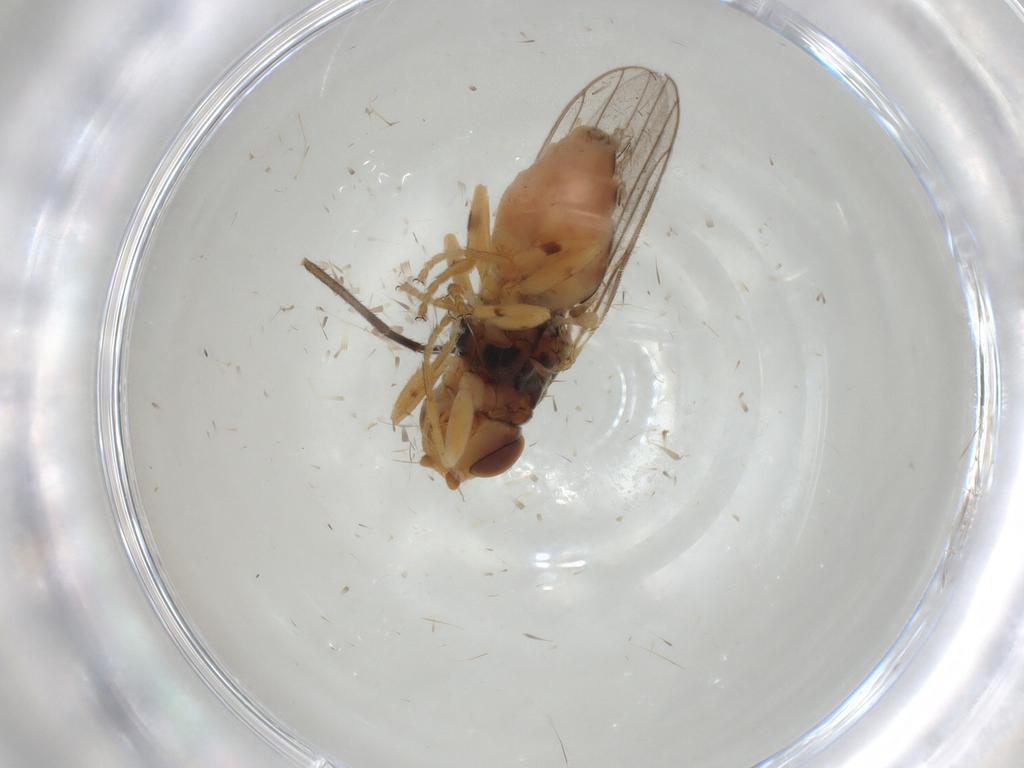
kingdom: Animalia
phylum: Arthropoda
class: Insecta
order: Diptera
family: Chloropidae
